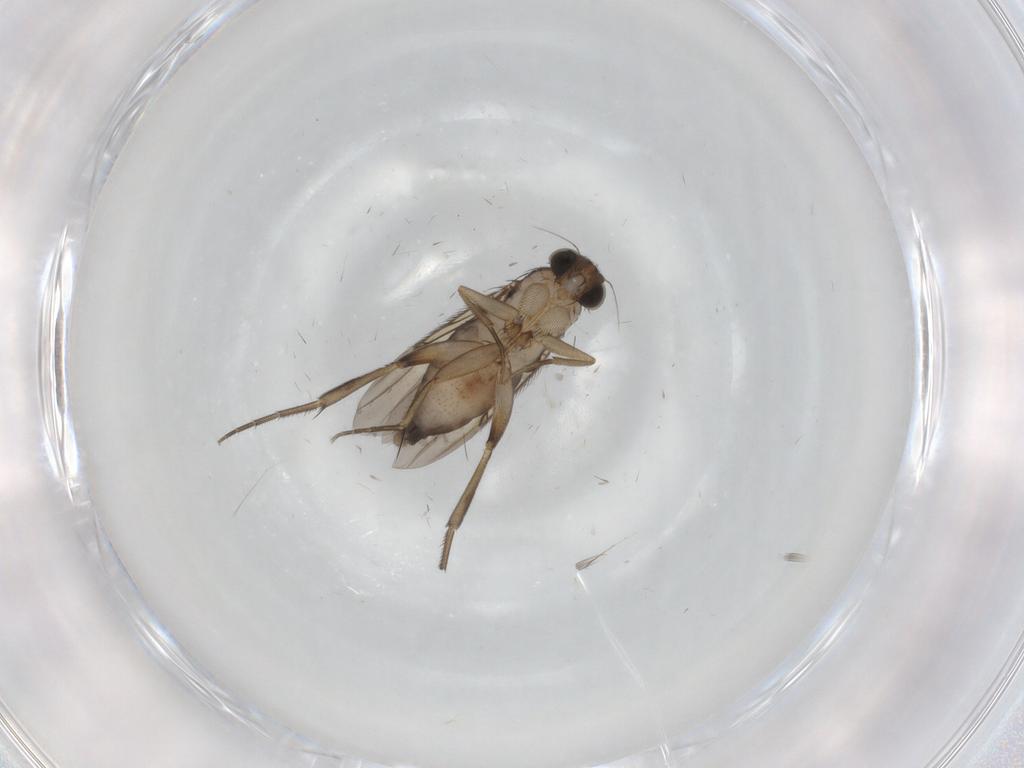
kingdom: Animalia
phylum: Arthropoda
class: Insecta
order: Diptera
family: Phoridae
